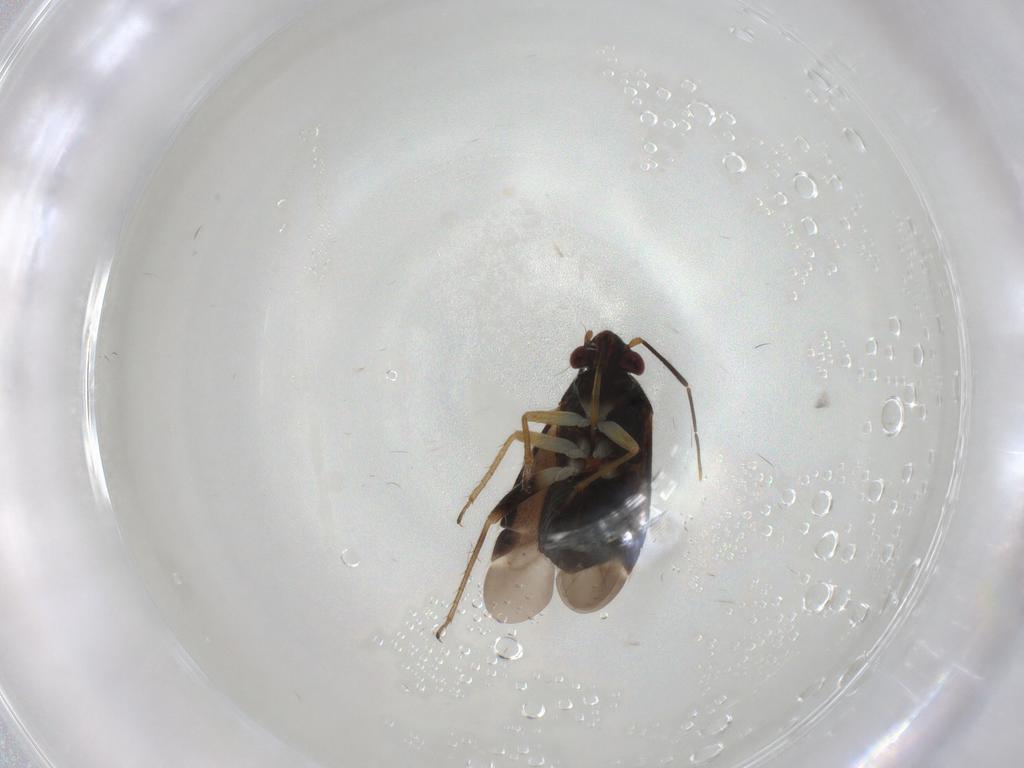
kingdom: Animalia
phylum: Arthropoda
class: Insecta
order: Hemiptera
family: Miridae
